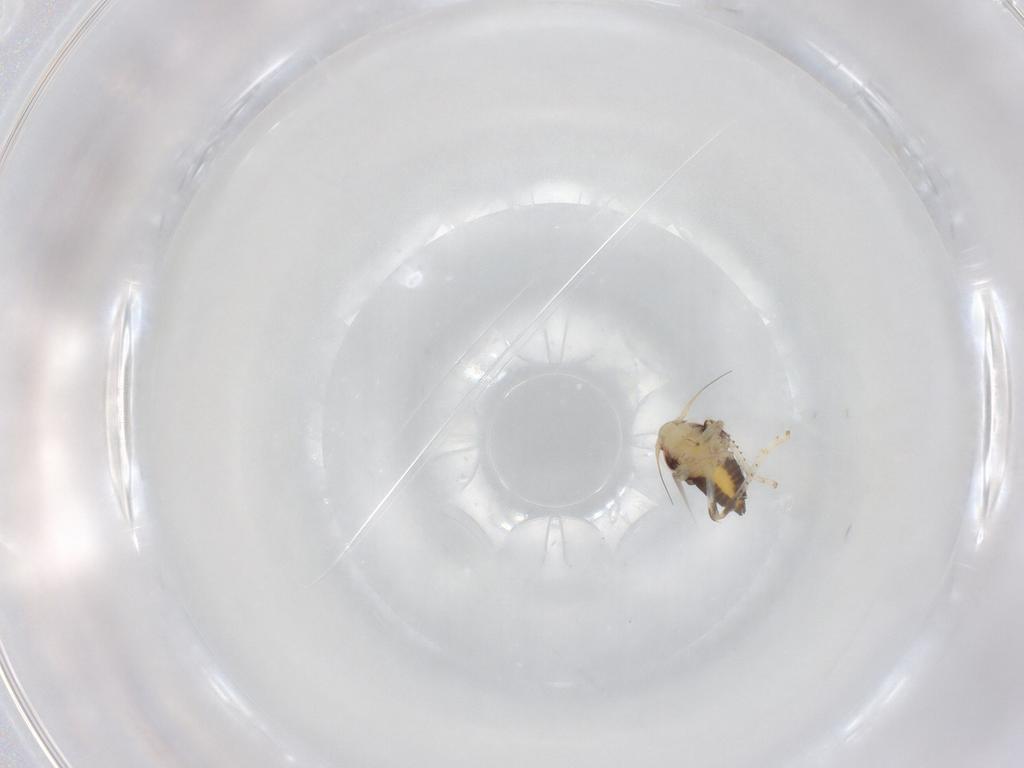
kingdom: Animalia
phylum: Arthropoda
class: Insecta
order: Hemiptera
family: Cicadellidae
